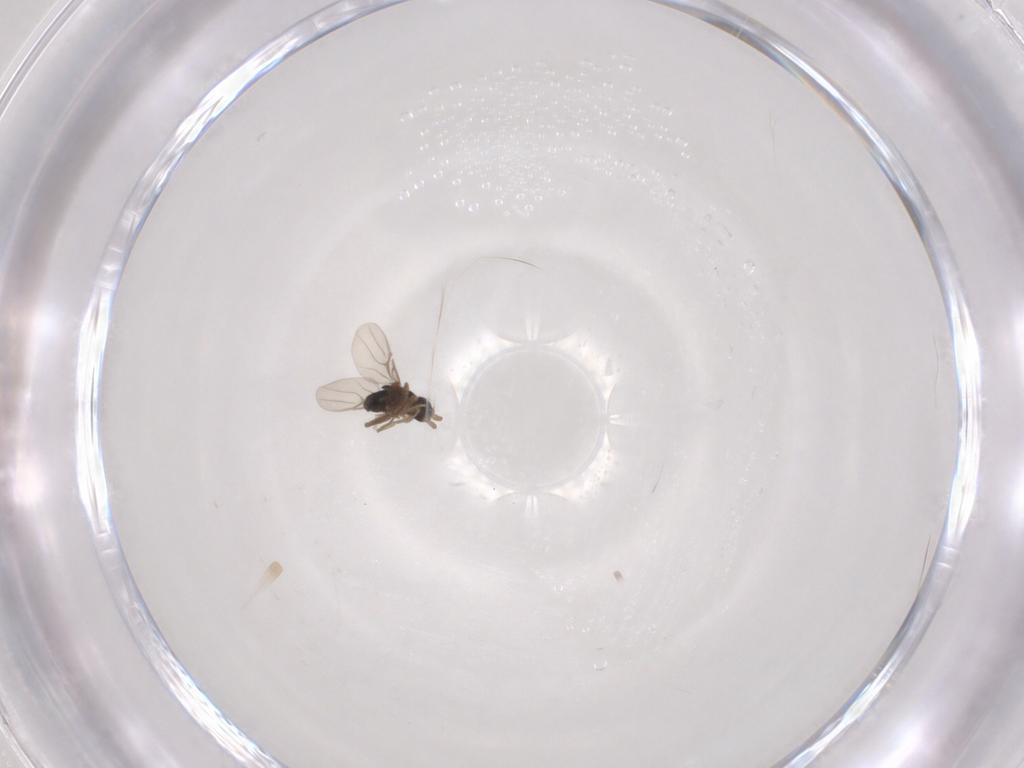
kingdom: Animalia
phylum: Arthropoda
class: Insecta
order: Diptera
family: Phoridae
